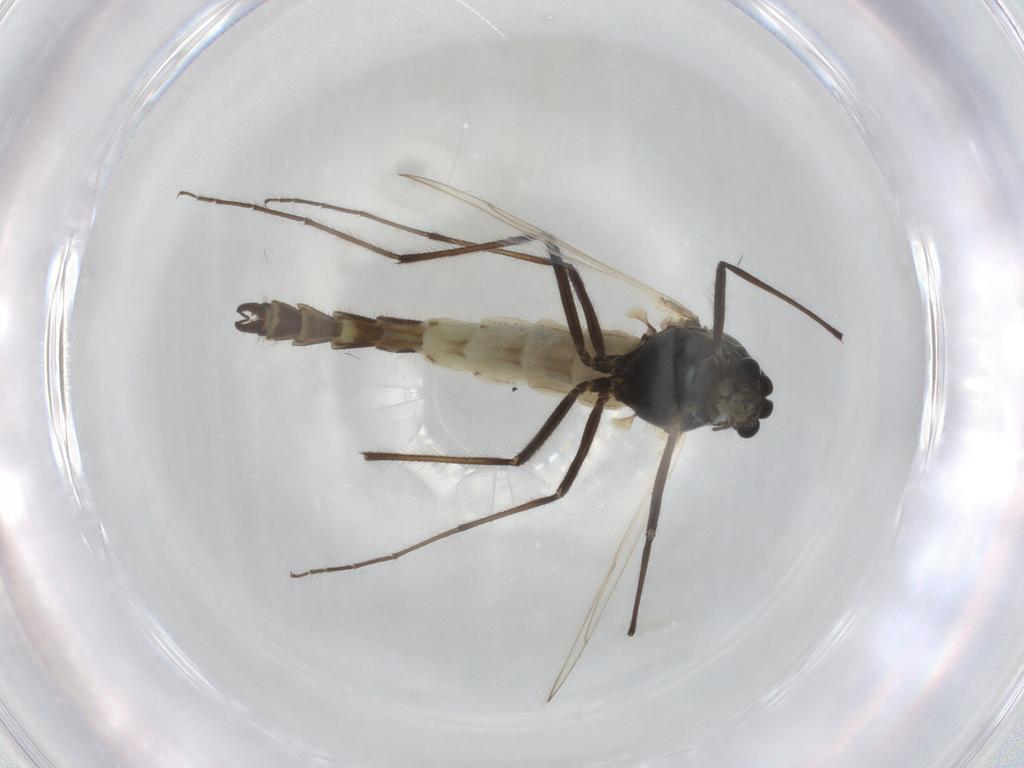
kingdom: Animalia
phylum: Arthropoda
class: Insecta
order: Diptera
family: Chironomidae
